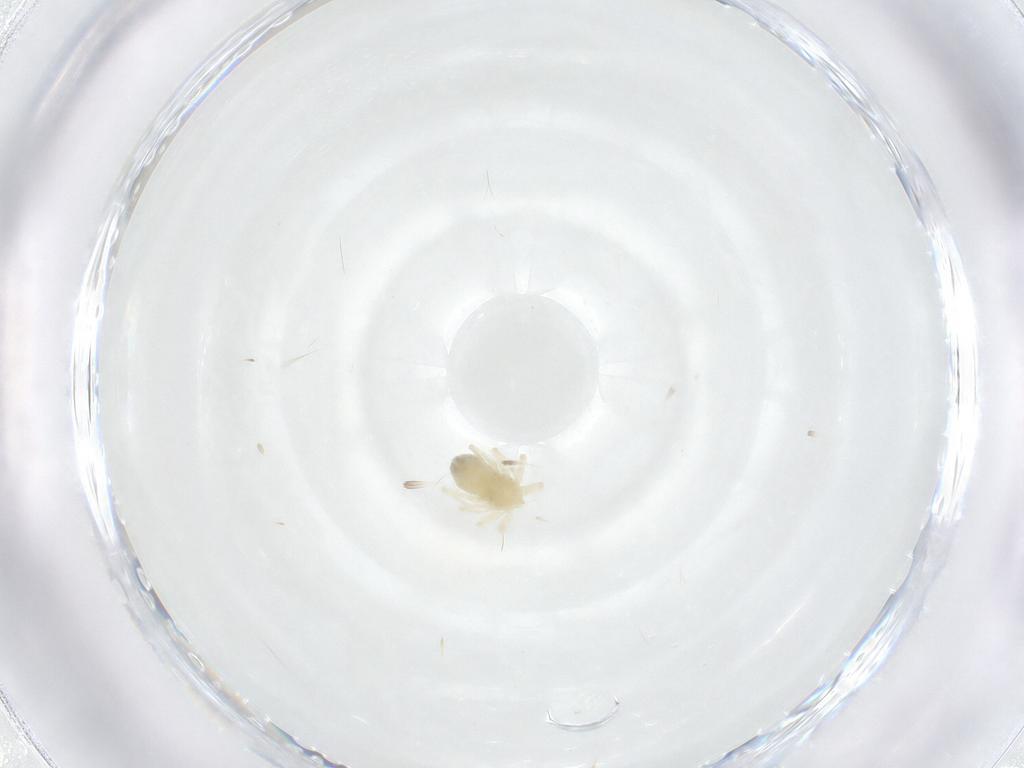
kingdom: Animalia
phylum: Arthropoda
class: Arachnida
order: Trombidiformes
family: Anystidae
